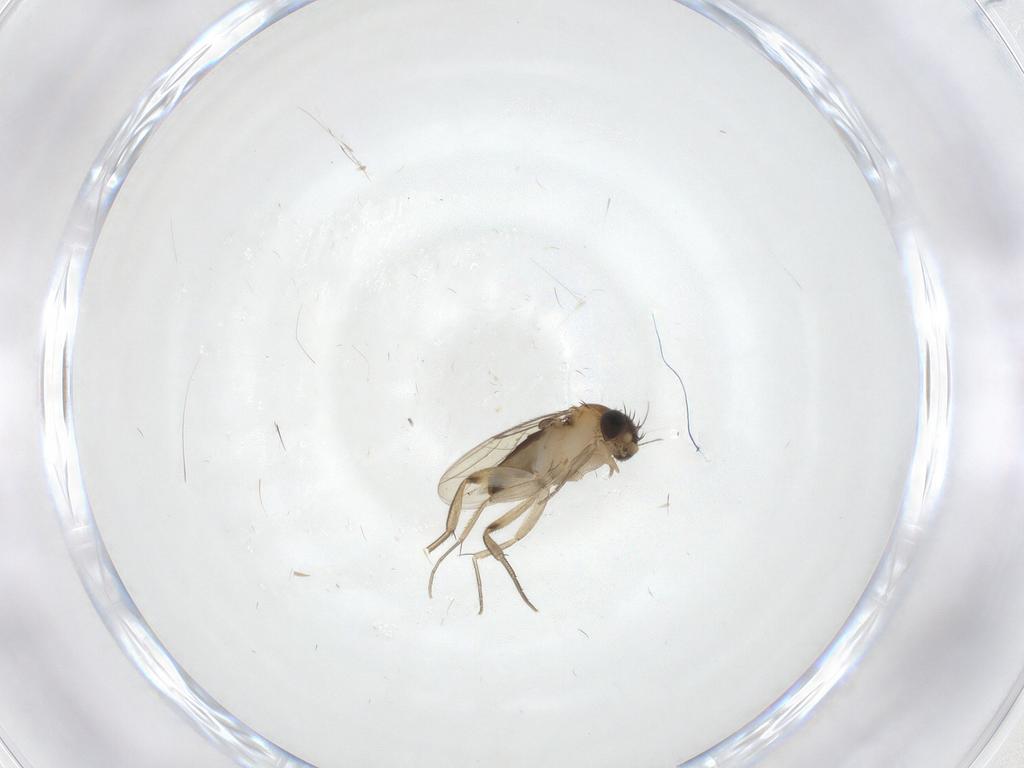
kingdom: Animalia
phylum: Arthropoda
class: Insecta
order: Diptera
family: Phoridae
